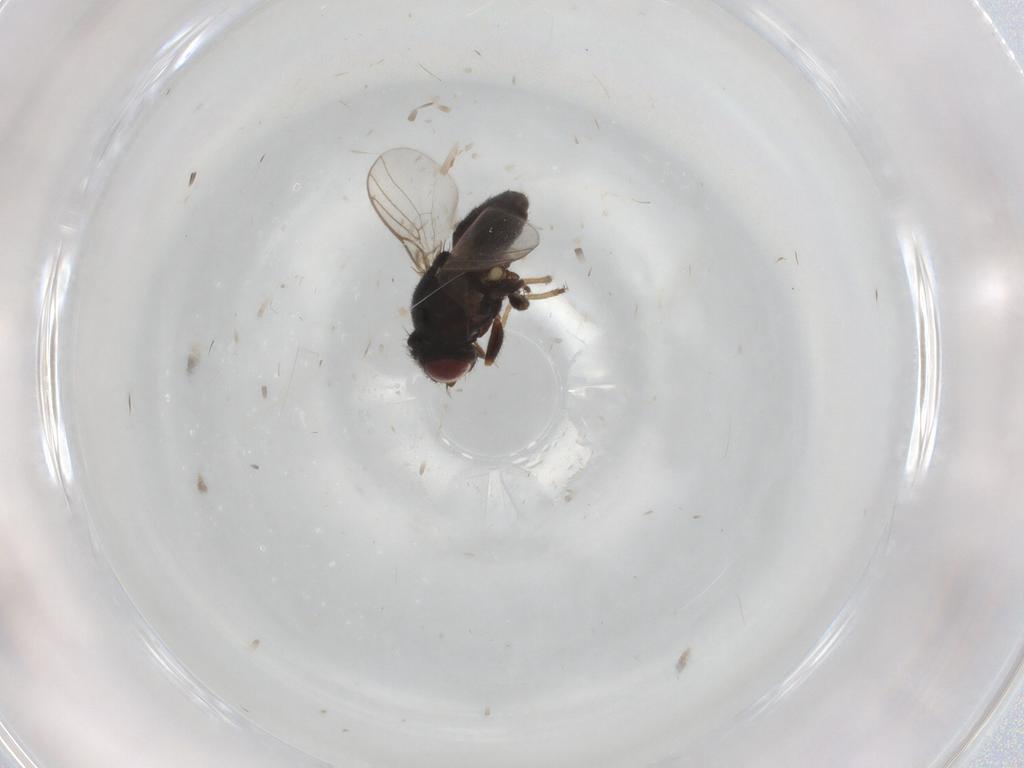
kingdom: Animalia
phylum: Arthropoda
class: Insecta
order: Diptera
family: Chloropidae
